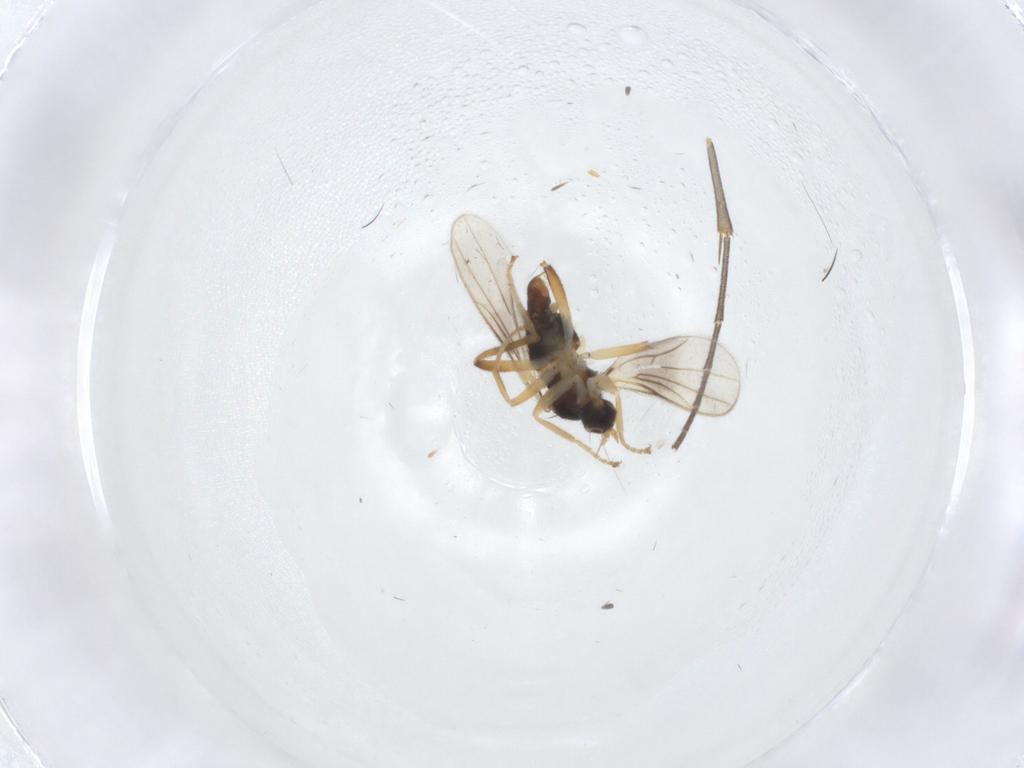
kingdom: Animalia
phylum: Arthropoda
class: Insecta
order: Diptera
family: Hybotidae
